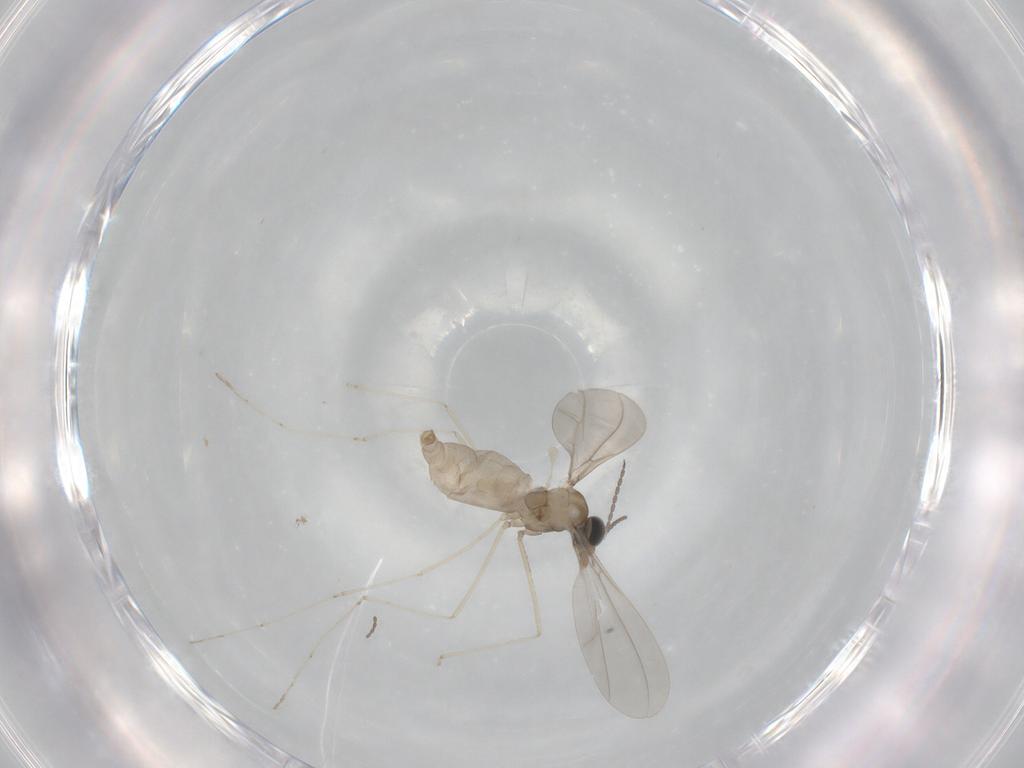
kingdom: Animalia
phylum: Arthropoda
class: Insecta
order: Diptera
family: Cecidomyiidae
